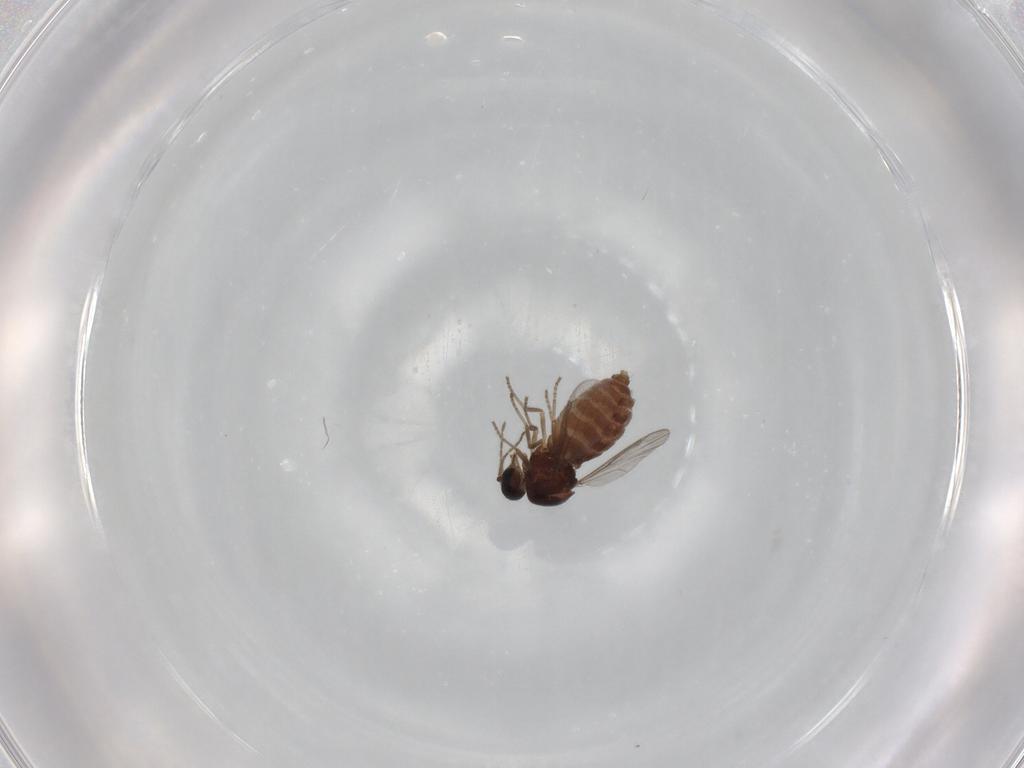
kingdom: Animalia
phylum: Arthropoda
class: Insecta
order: Diptera
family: Ceratopogonidae
